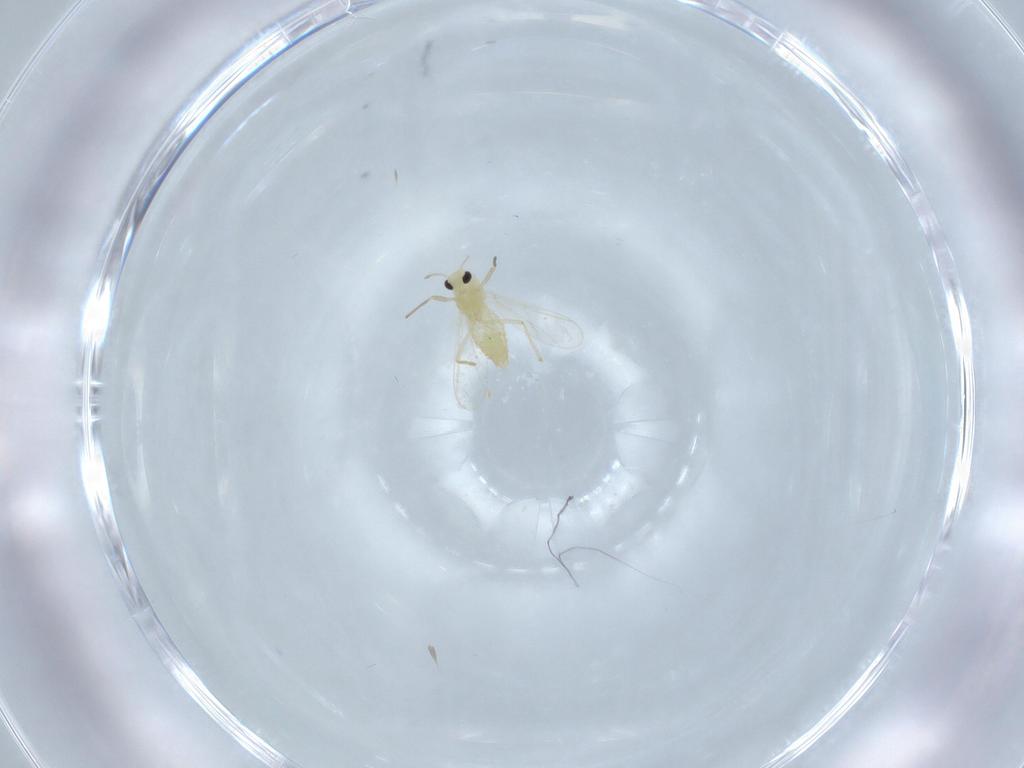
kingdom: Animalia
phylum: Arthropoda
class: Insecta
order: Diptera
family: Chironomidae
